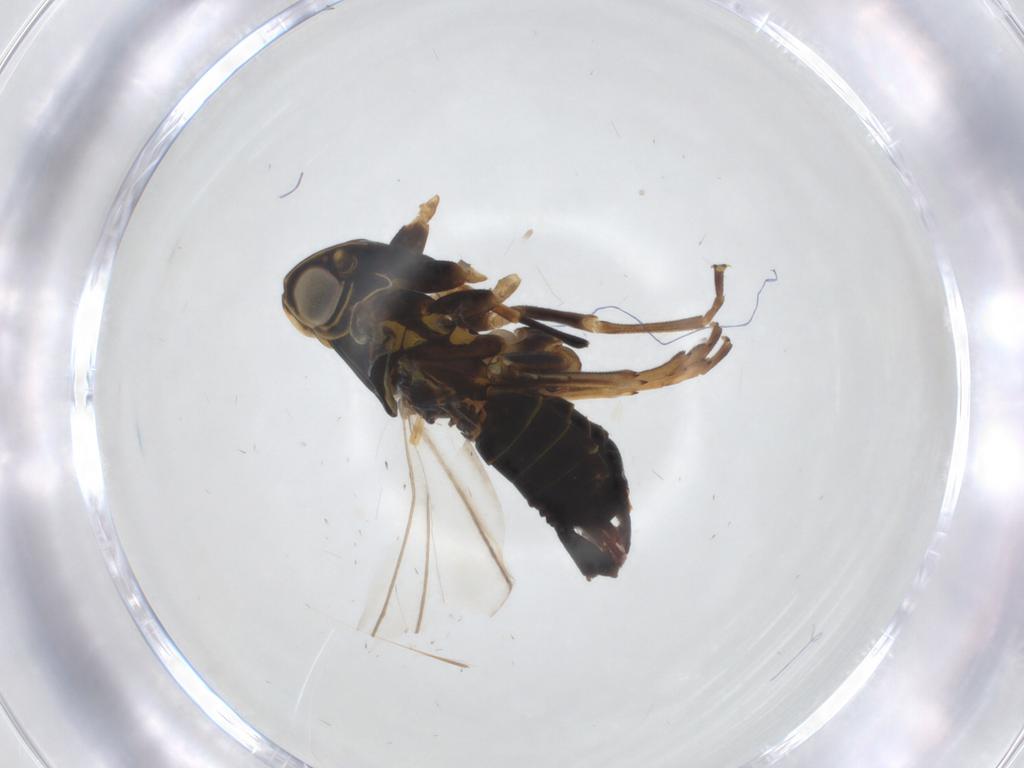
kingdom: Animalia
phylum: Arthropoda
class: Insecta
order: Hemiptera
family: Cixiidae
